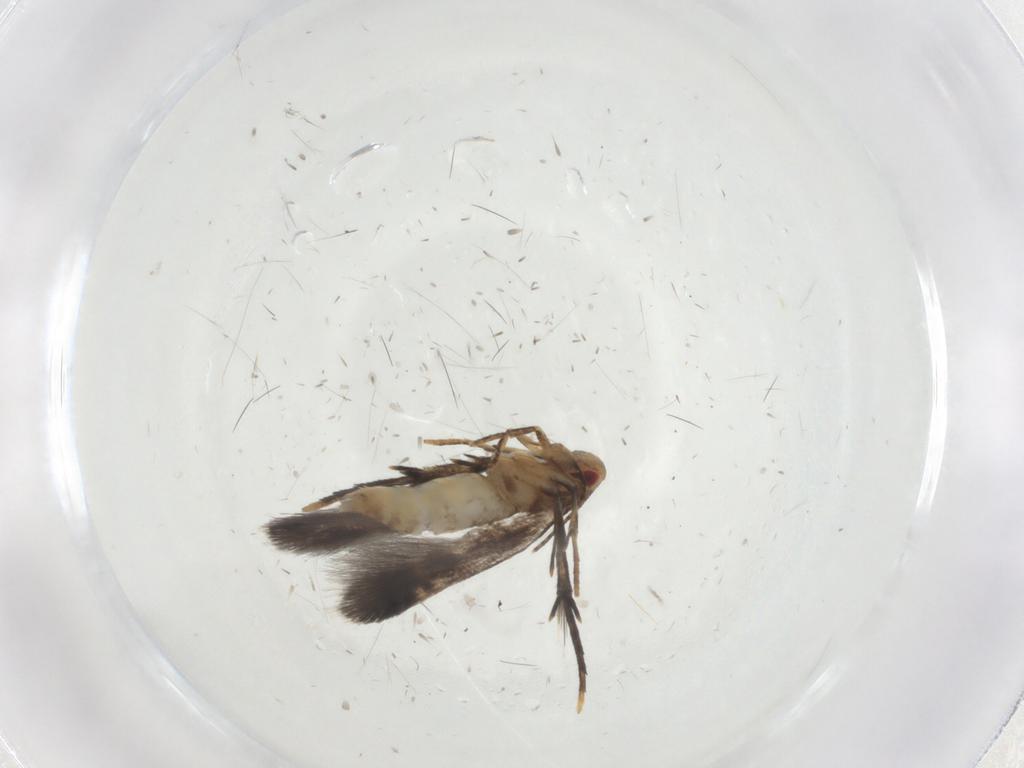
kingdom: Animalia
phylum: Arthropoda
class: Insecta
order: Lepidoptera
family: Momphidae
